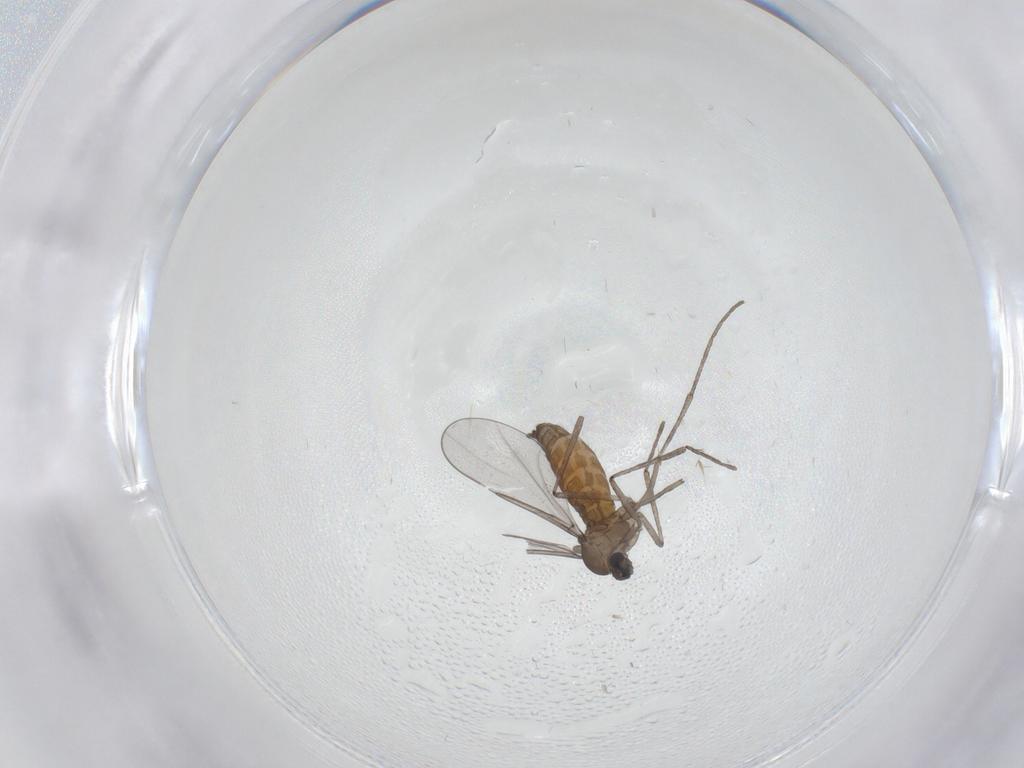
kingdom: Animalia
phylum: Arthropoda
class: Insecta
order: Diptera
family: Cecidomyiidae
